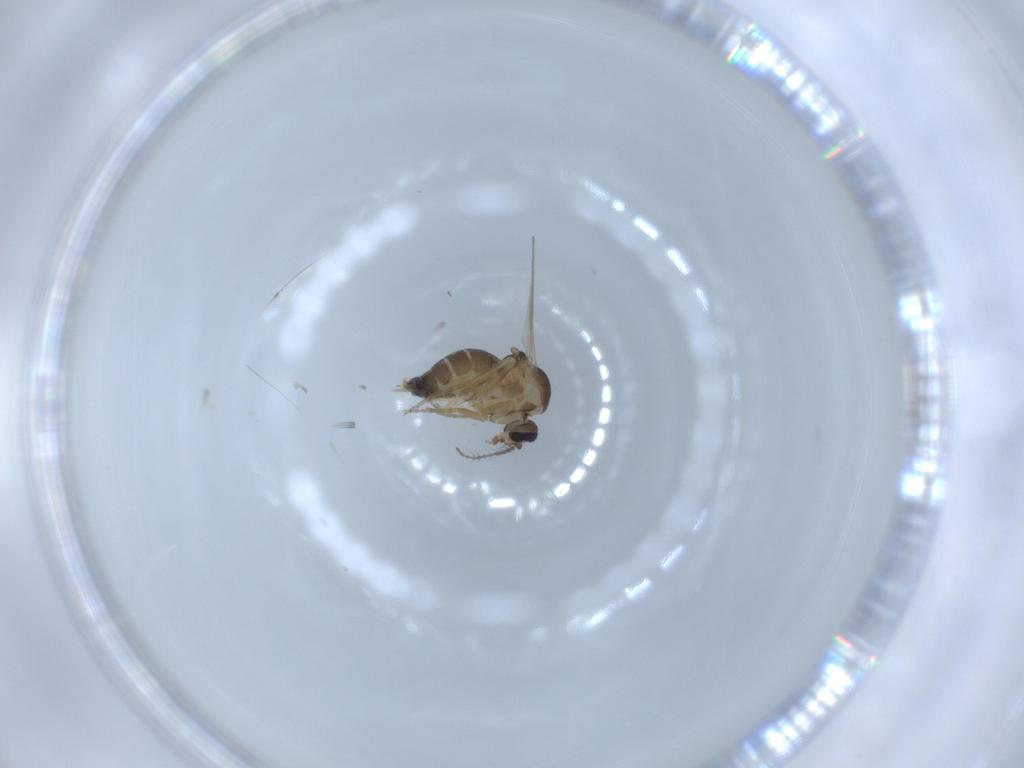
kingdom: Animalia
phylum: Arthropoda
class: Insecta
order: Diptera
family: Ceratopogonidae
